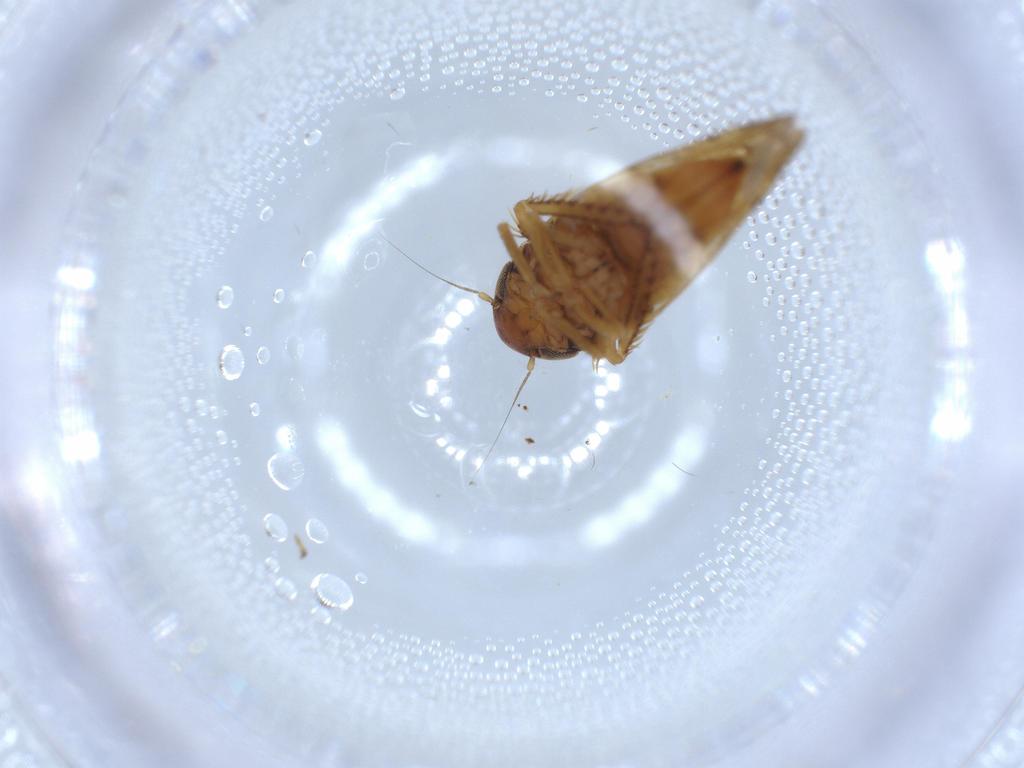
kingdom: Animalia
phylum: Arthropoda
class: Insecta
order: Hemiptera
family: Cicadellidae
